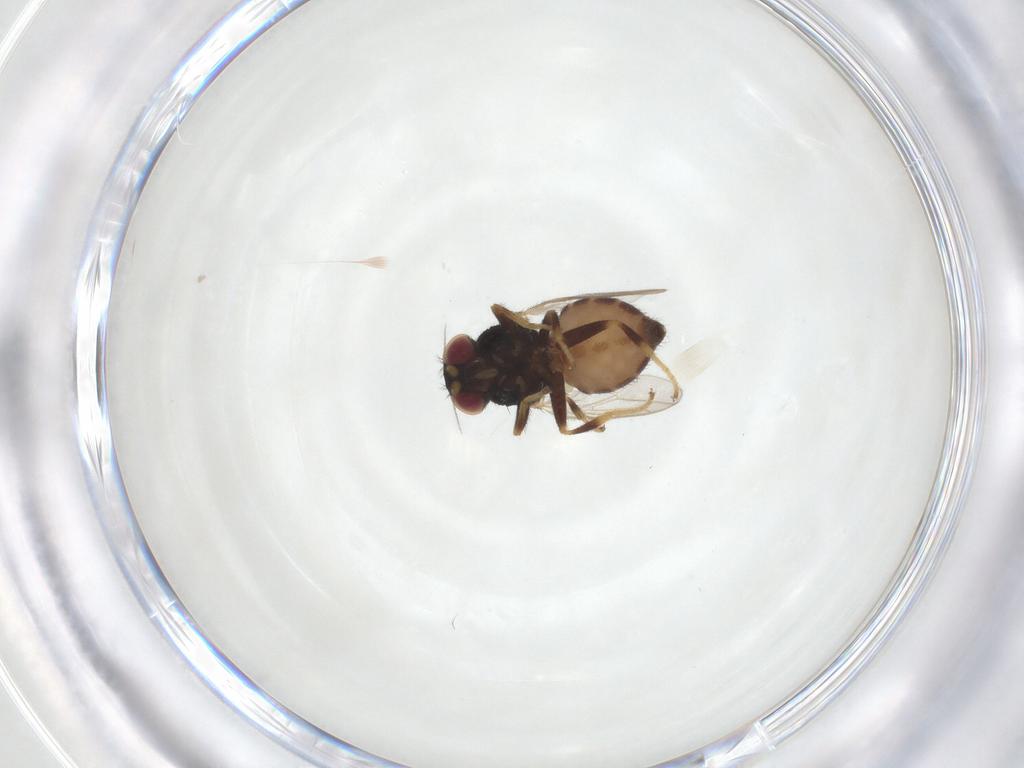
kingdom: Animalia
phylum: Arthropoda
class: Insecta
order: Diptera
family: Chloropidae
